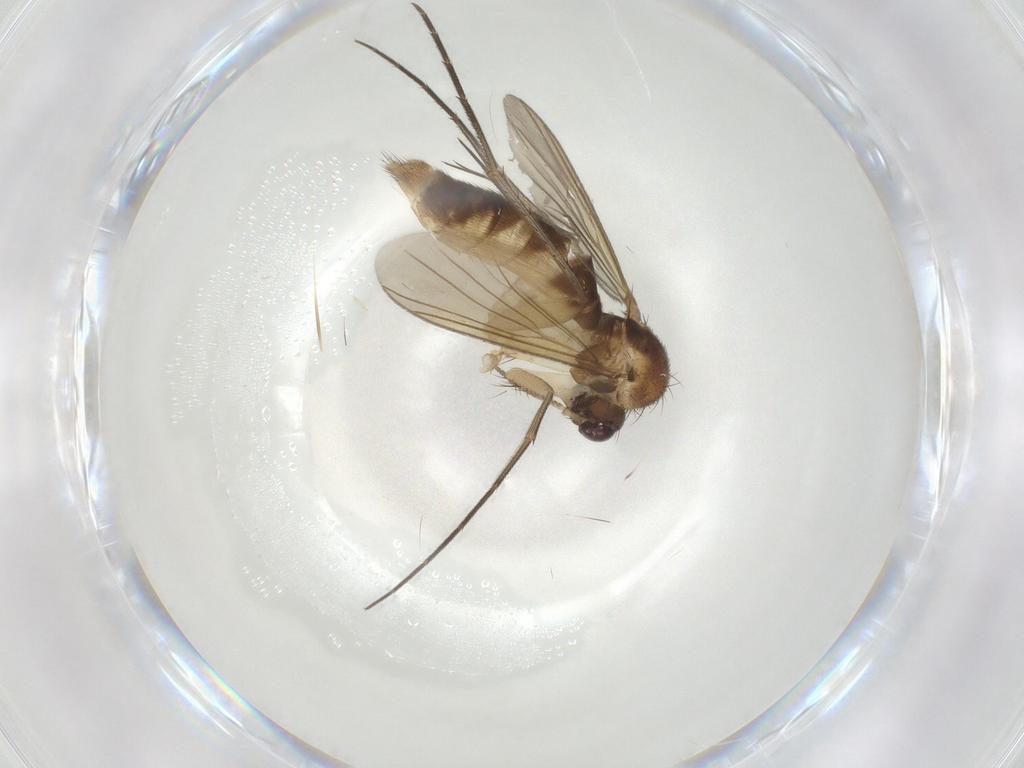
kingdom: Animalia
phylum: Arthropoda
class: Insecta
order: Diptera
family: Mycetophilidae
